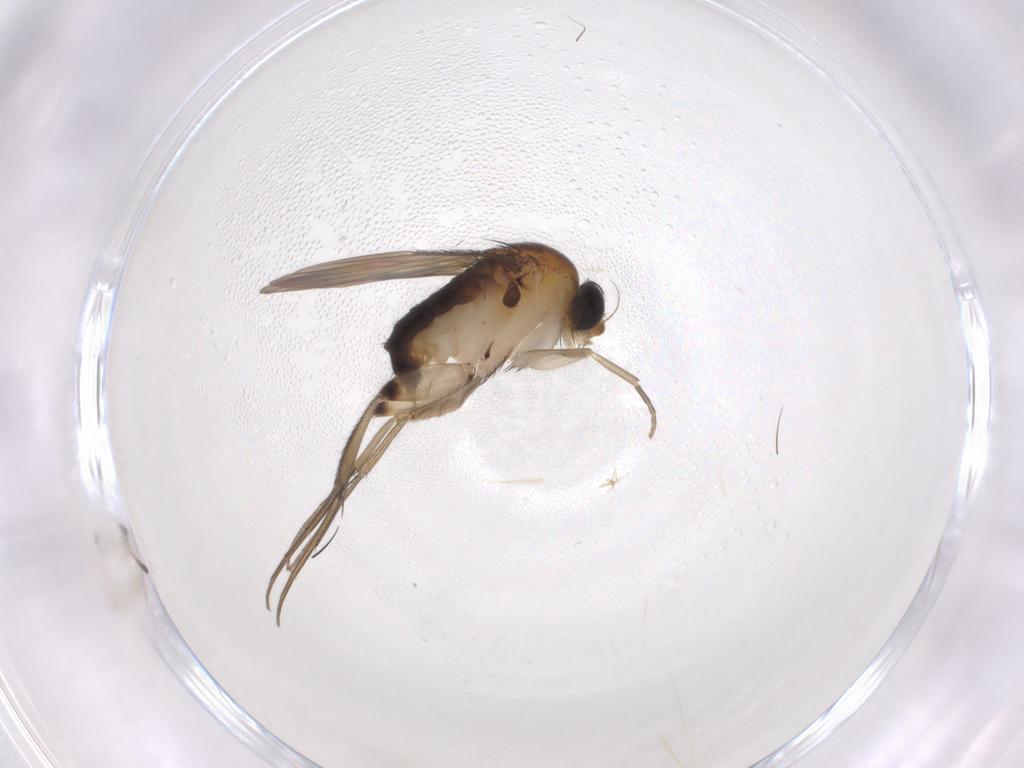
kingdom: Animalia
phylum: Arthropoda
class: Insecta
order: Diptera
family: Phoridae
